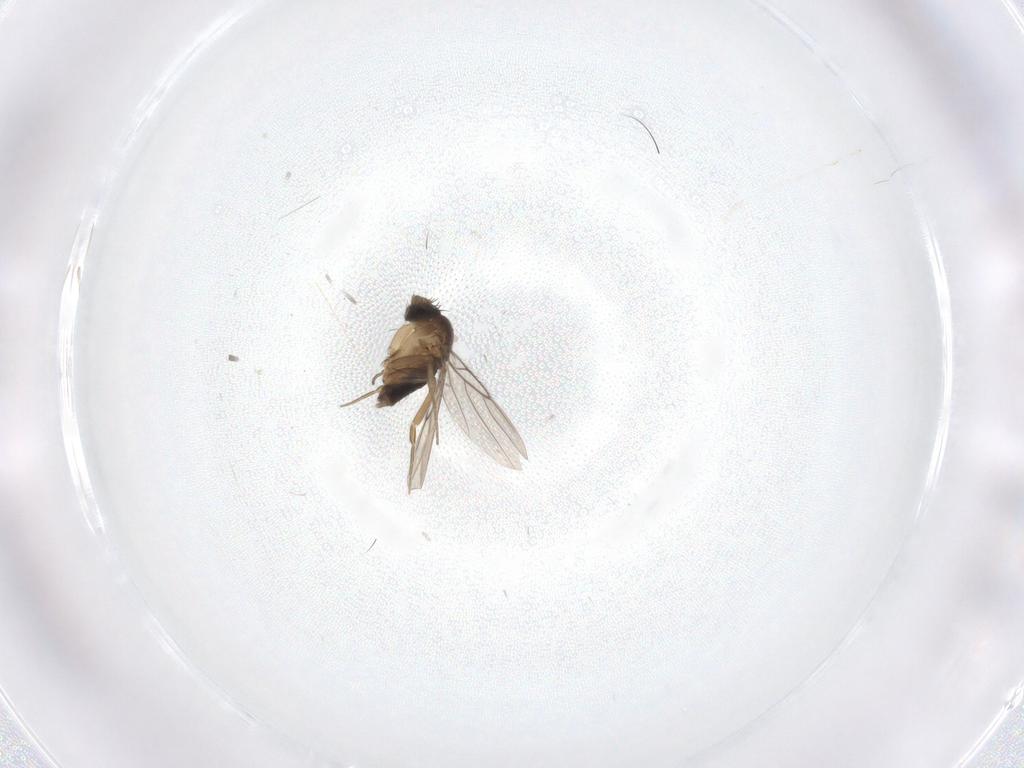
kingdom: Animalia
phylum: Arthropoda
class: Insecta
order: Diptera
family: Cecidomyiidae
